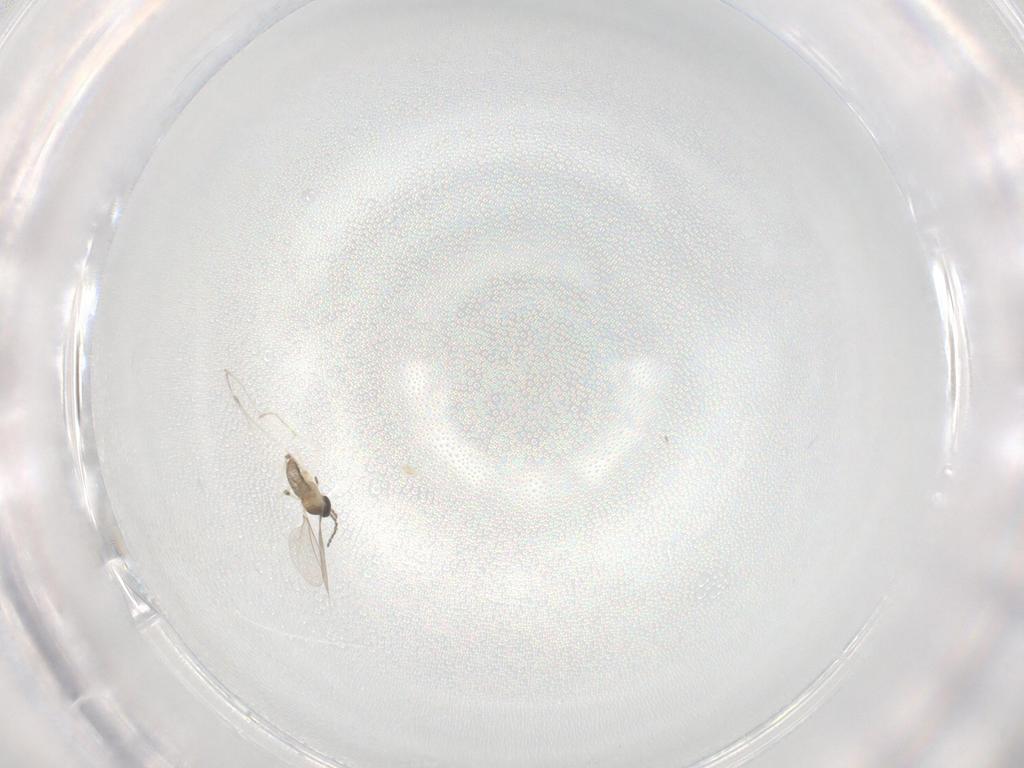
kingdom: Animalia
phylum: Arthropoda
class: Insecta
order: Diptera
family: Cecidomyiidae
